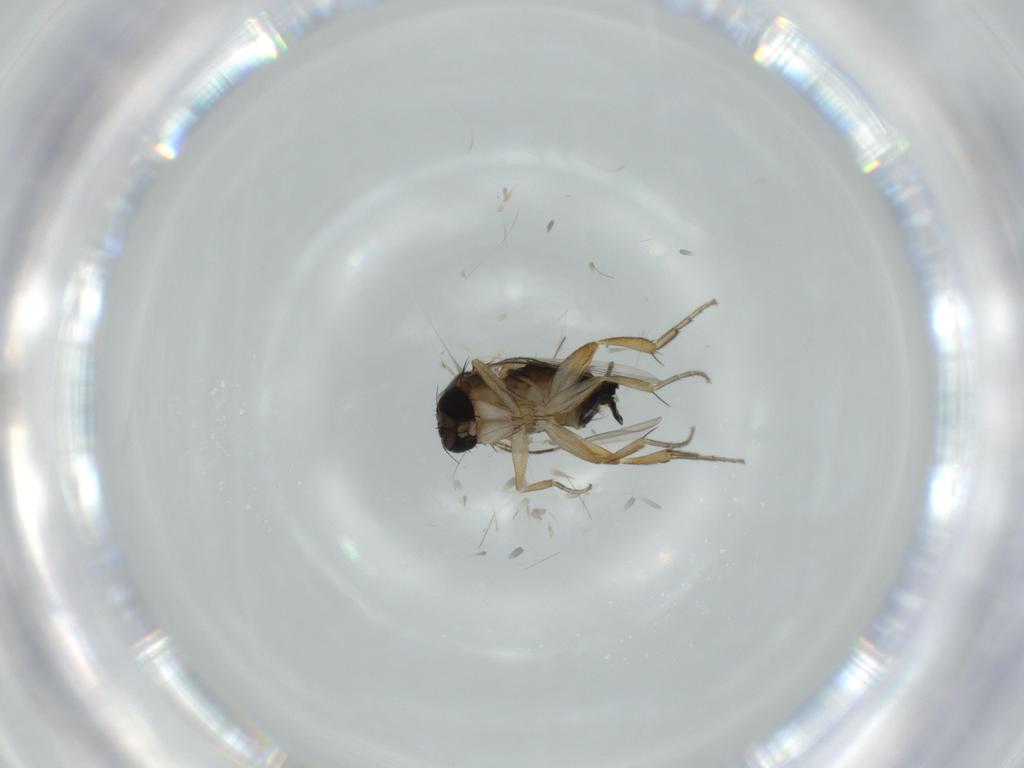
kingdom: Animalia
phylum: Arthropoda
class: Insecta
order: Diptera
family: Phoridae
